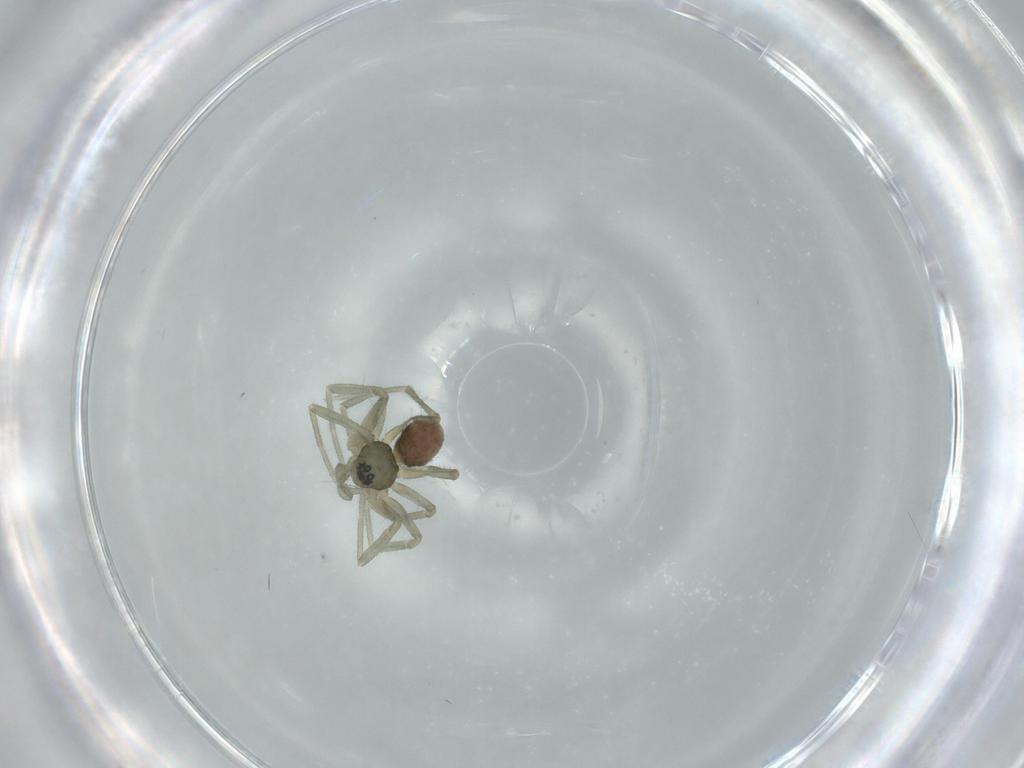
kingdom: Animalia
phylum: Arthropoda
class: Arachnida
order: Araneae
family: Linyphiidae
